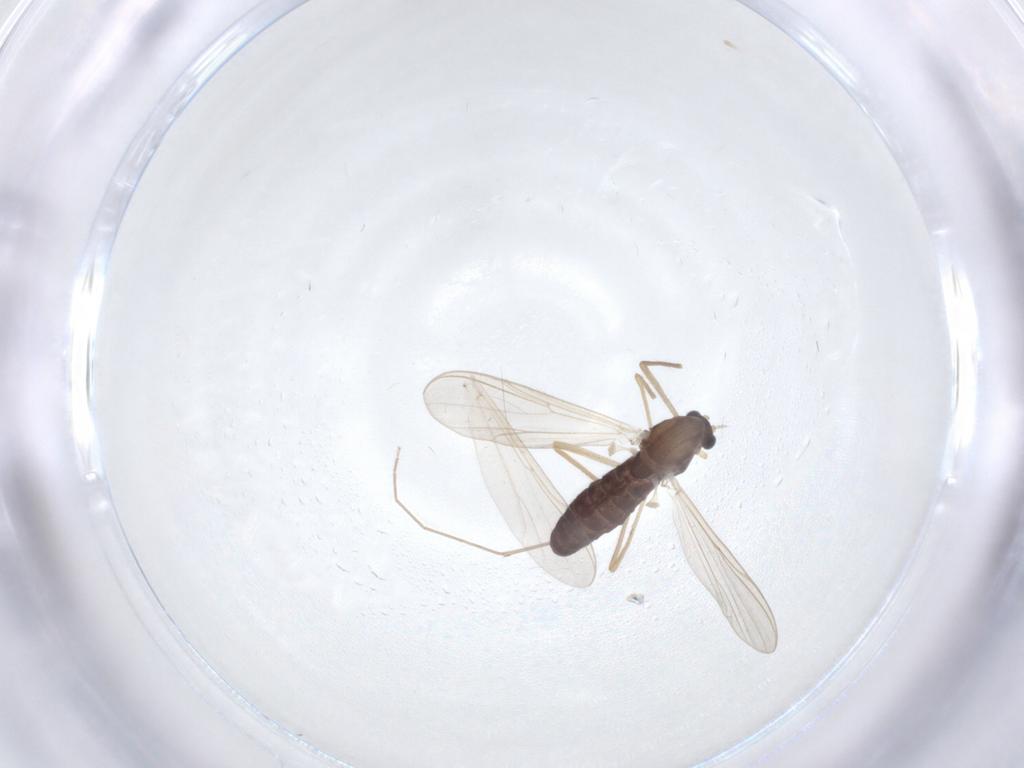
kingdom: Animalia
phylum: Arthropoda
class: Insecta
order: Diptera
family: Chironomidae
